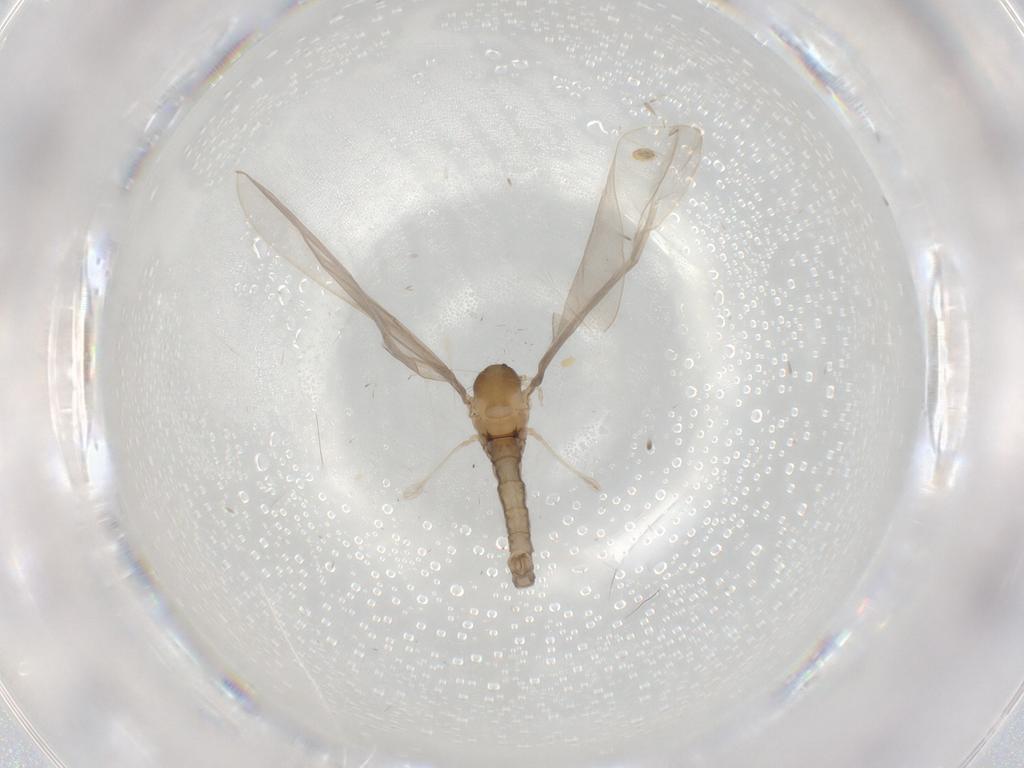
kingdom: Animalia
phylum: Arthropoda
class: Insecta
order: Diptera
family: Cecidomyiidae
